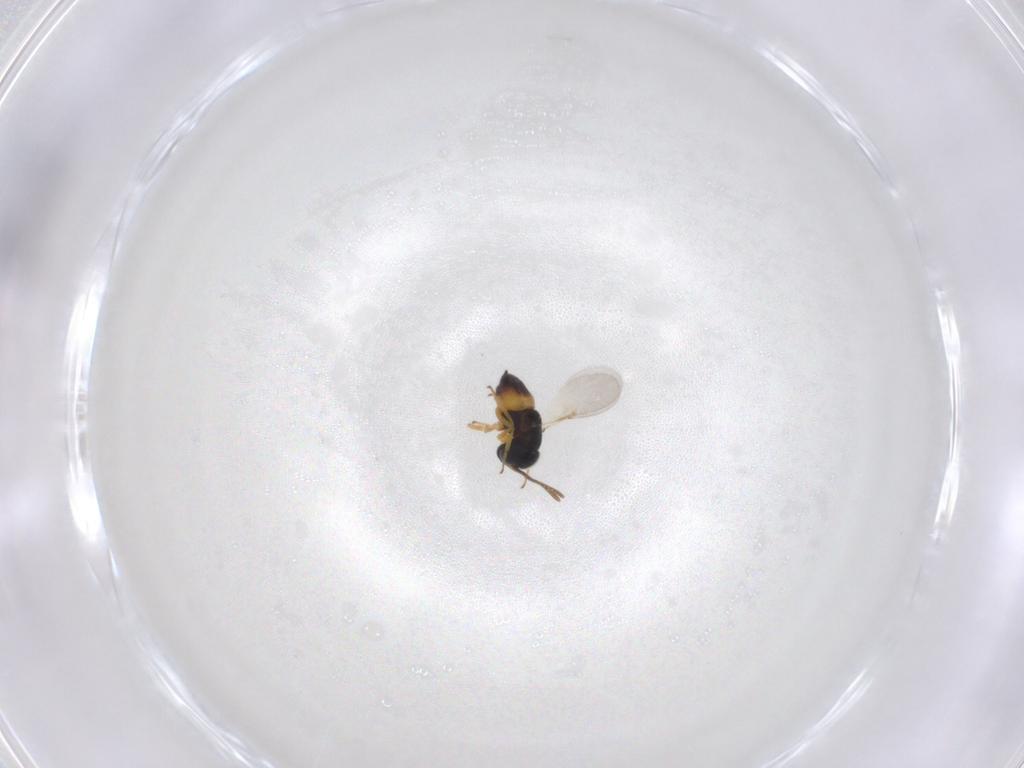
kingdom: Animalia
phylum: Arthropoda
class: Insecta
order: Hymenoptera
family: Encyrtidae
